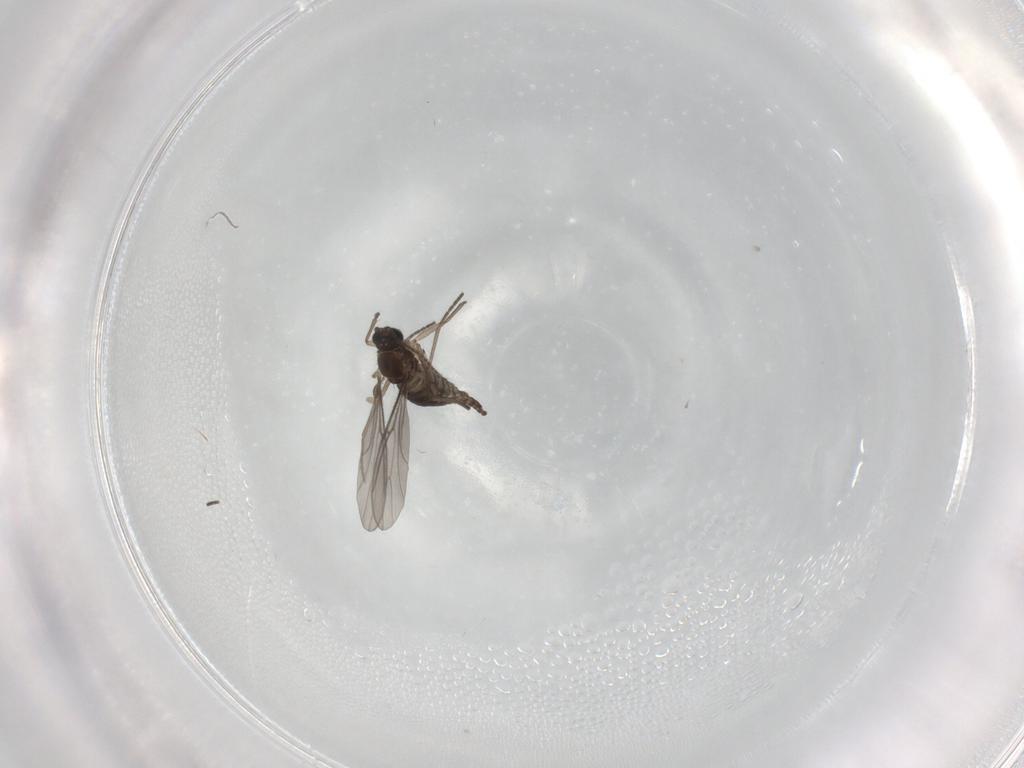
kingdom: Animalia
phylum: Arthropoda
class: Insecta
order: Diptera
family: Sciaridae
